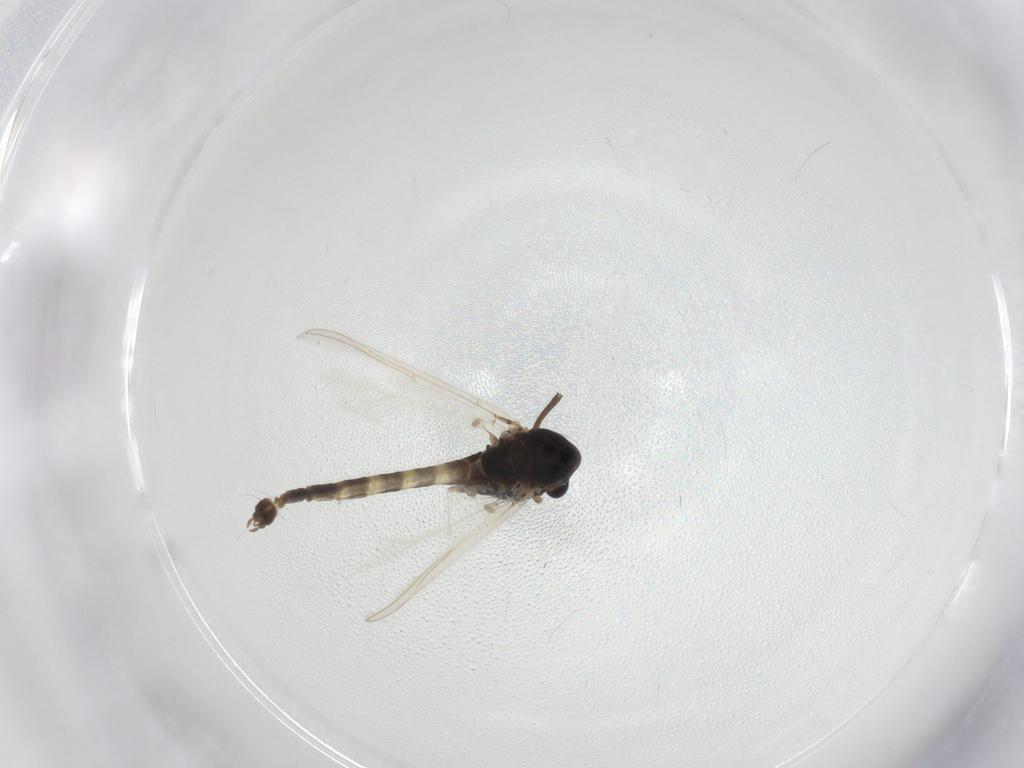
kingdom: Animalia
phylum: Arthropoda
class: Insecta
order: Diptera
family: Chironomidae
